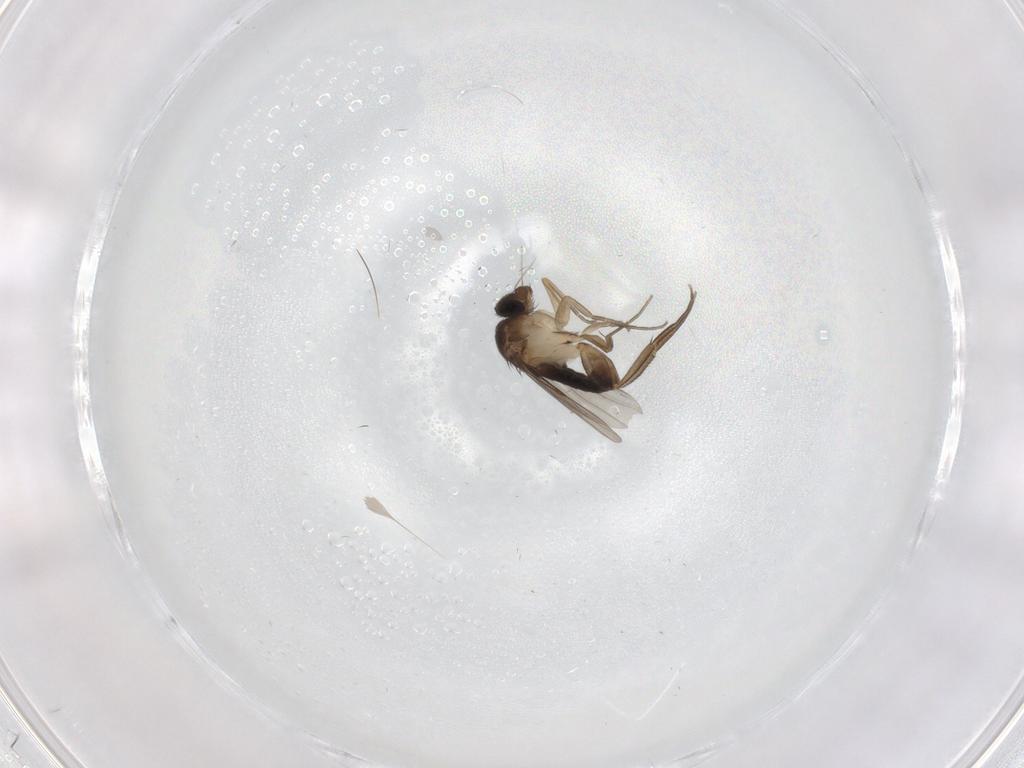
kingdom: Animalia
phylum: Arthropoda
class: Insecta
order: Diptera
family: Phoridae
